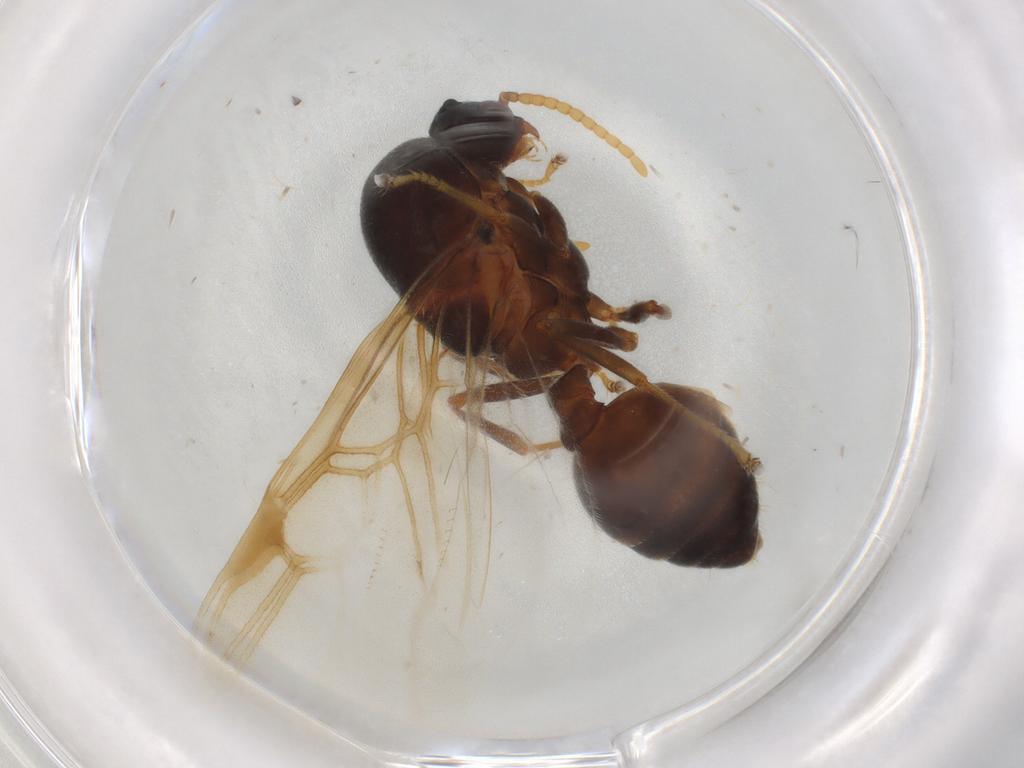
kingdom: Animalia
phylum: Arthropoda
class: Insecta
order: Hymenoptera
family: Formicidae
